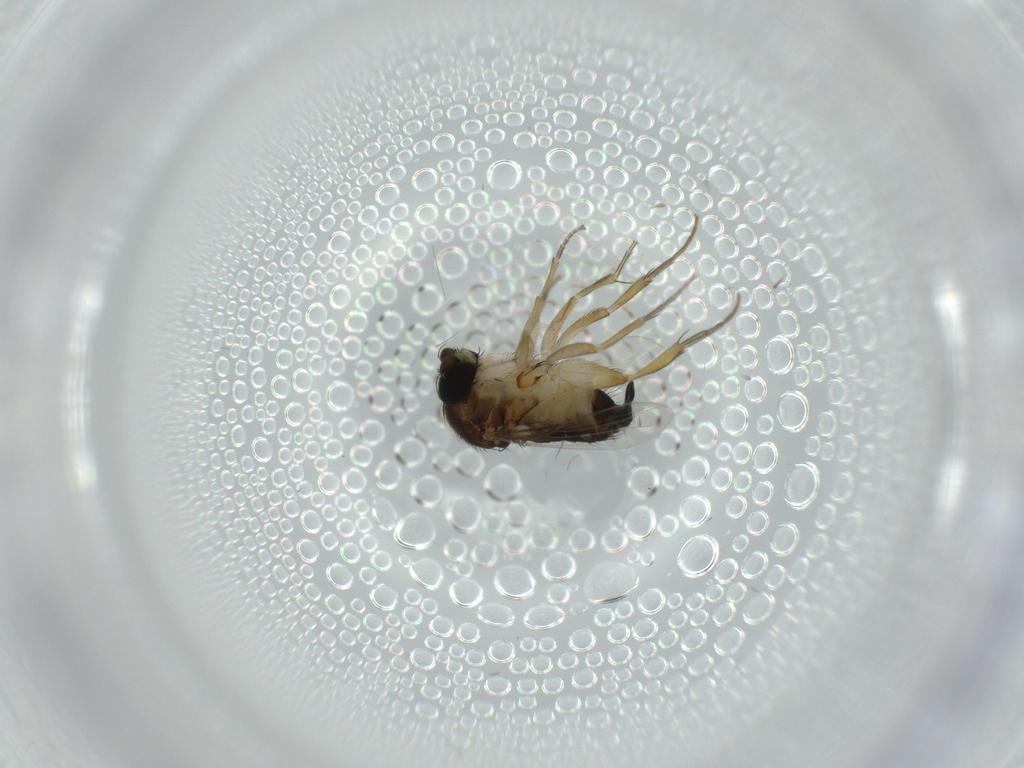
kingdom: Animalia
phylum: Arthropoda
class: Insecta
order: Diptera
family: Phoridae
